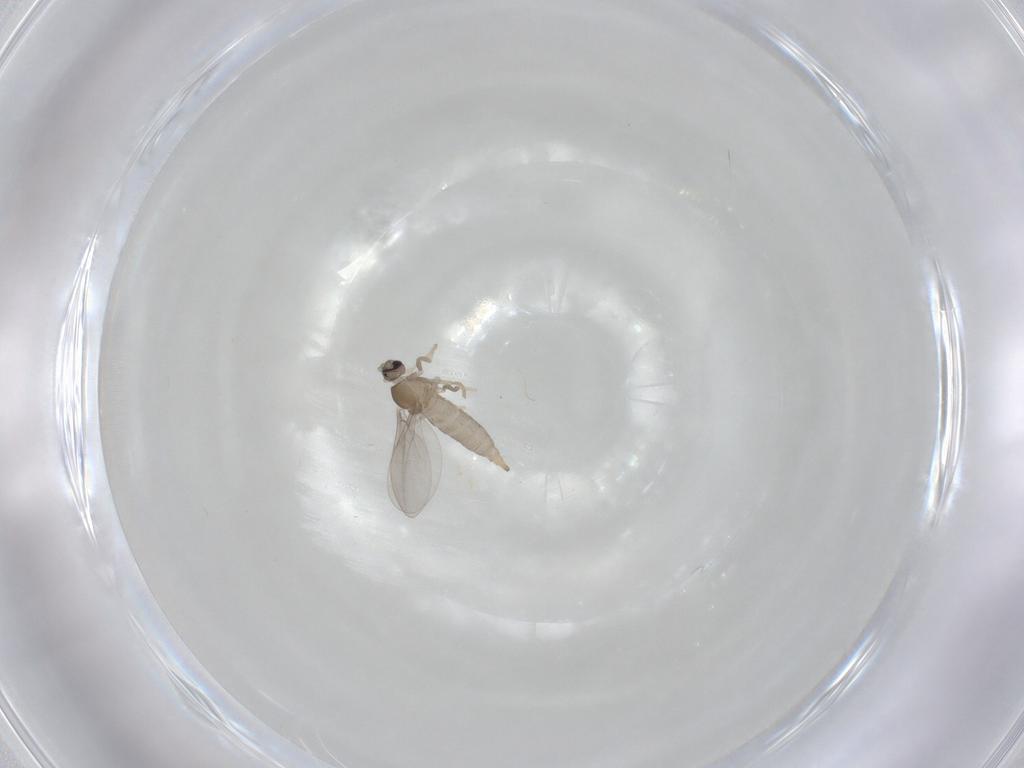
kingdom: Animalia
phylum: Arthropoda
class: Insecta
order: Diptera
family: Chironomidae
